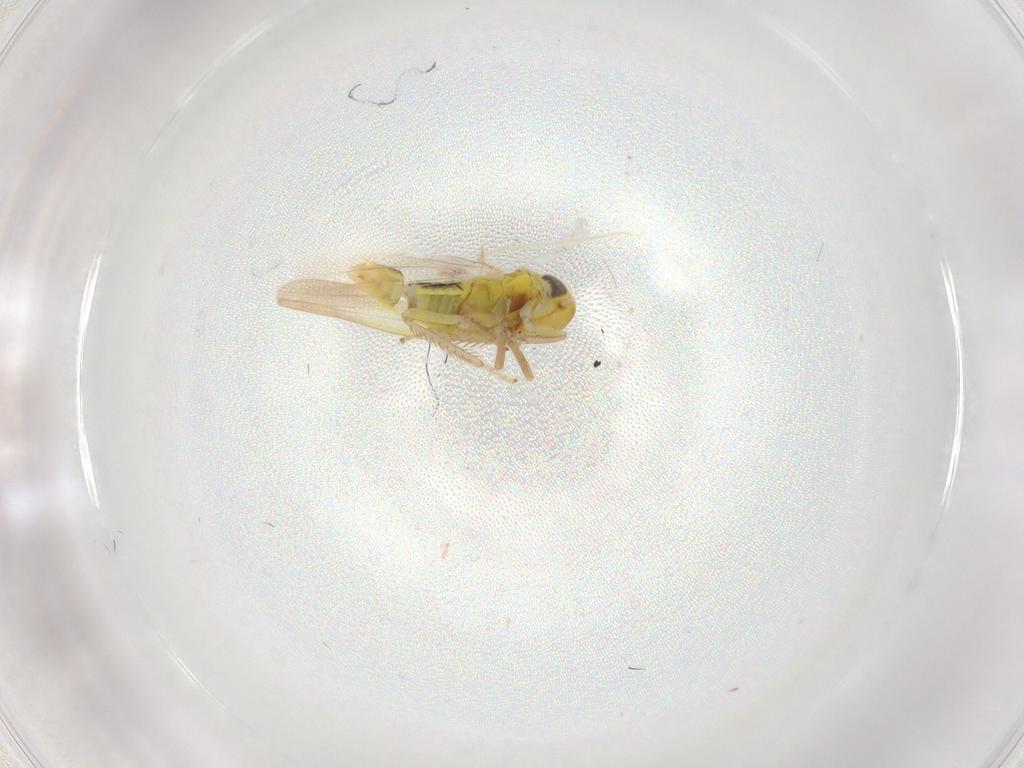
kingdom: Animalia
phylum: Arthropoda
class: Insecta
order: Hemiptera
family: Cicadellidae
